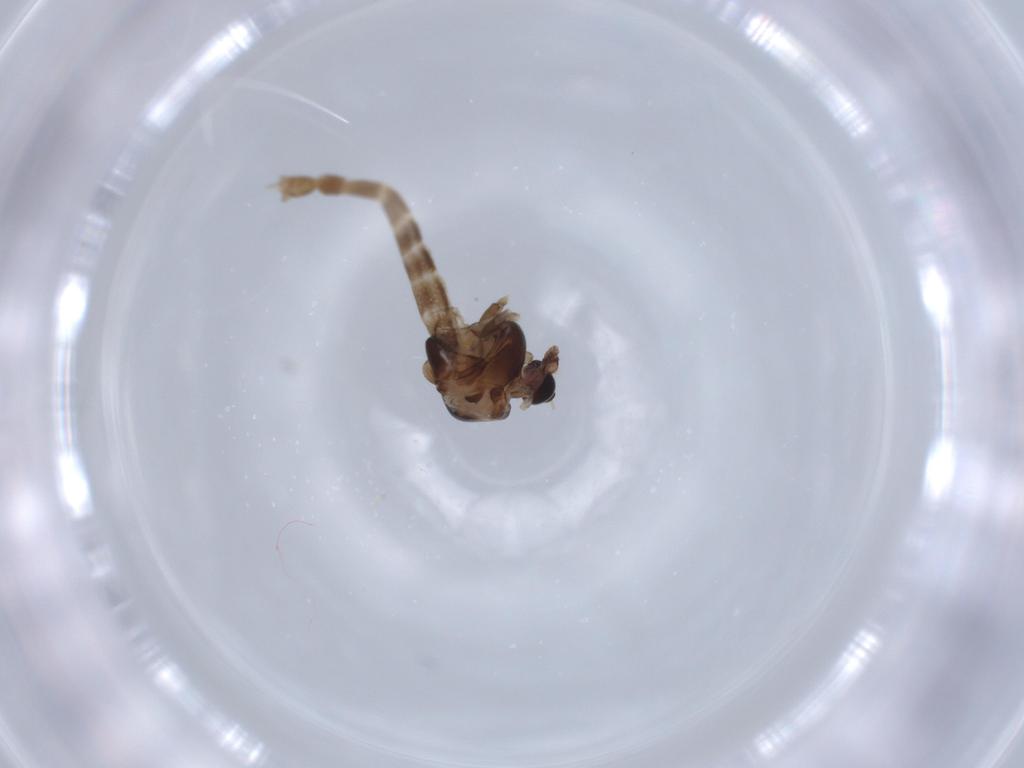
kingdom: Animalia
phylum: Arthropoda
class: Insecta
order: Diptera
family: Chironomidae
